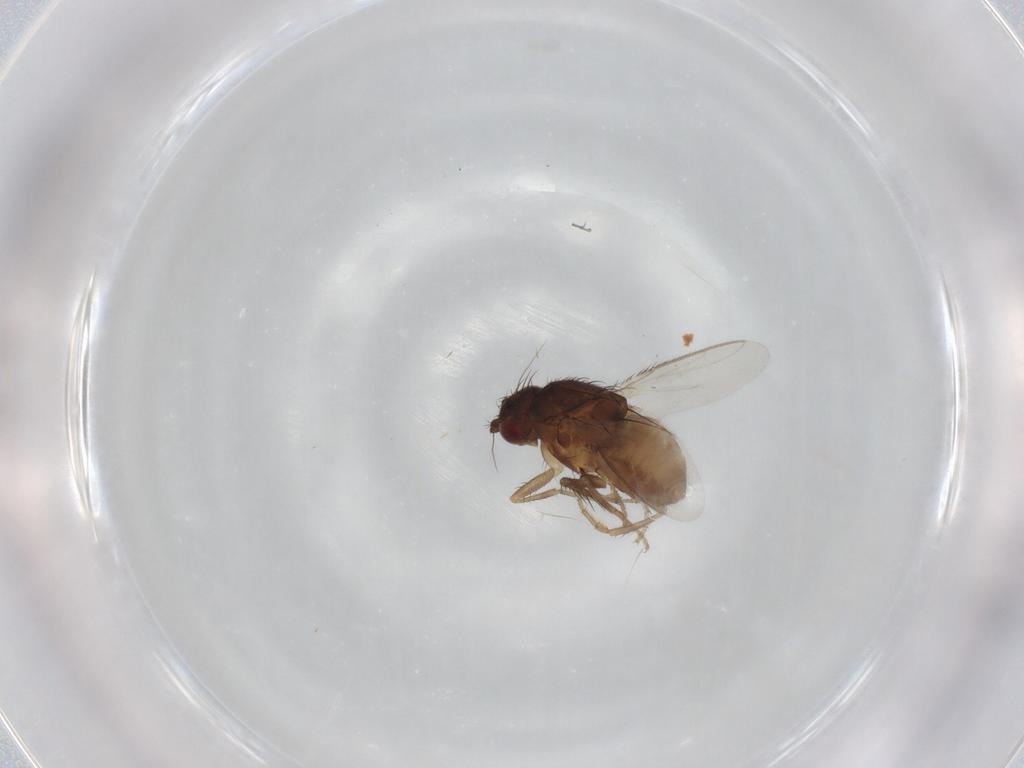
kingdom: Animalia
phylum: Arthropoda
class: Insecta
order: Diptera
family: Sphaeroceridae
